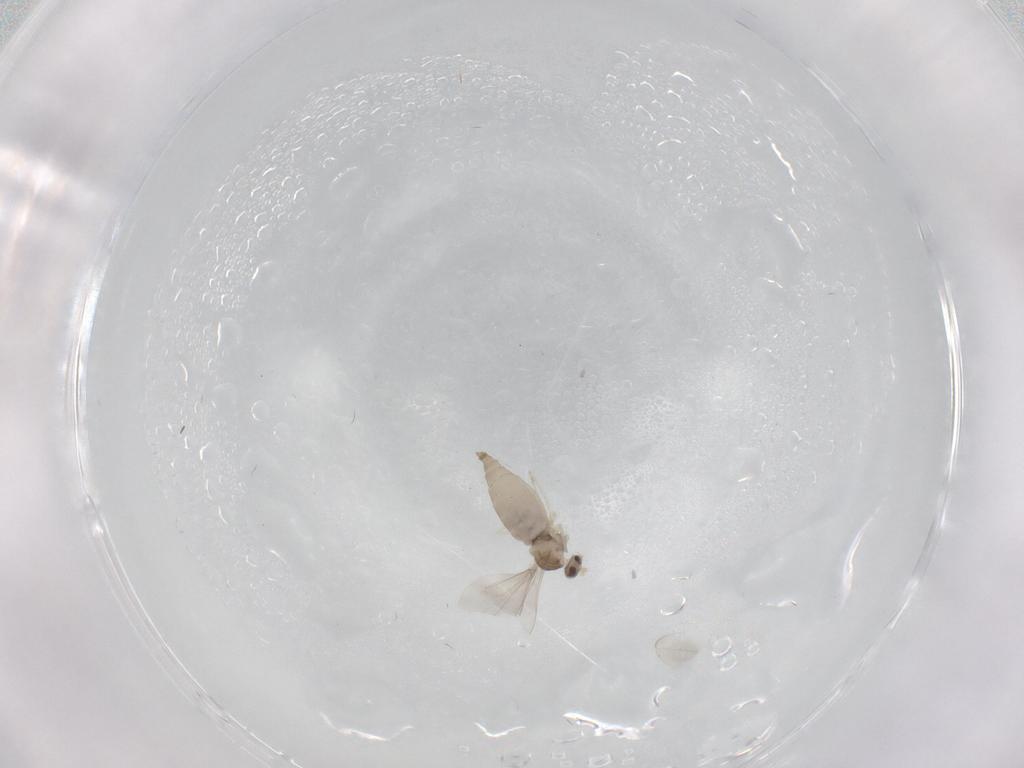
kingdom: Animalia
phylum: Arthropoda
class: Insecta
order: Diptera
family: Cecidomyiidae
